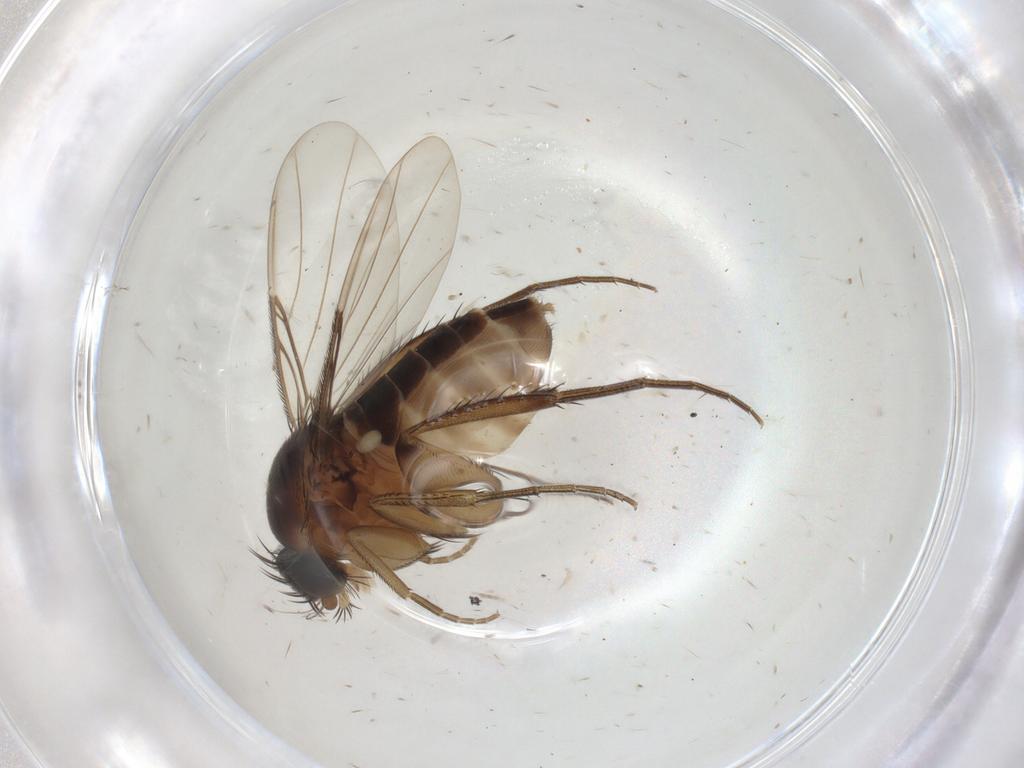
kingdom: Animalia
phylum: Arthropoda
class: Insecta
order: Diptera
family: Phoridae
